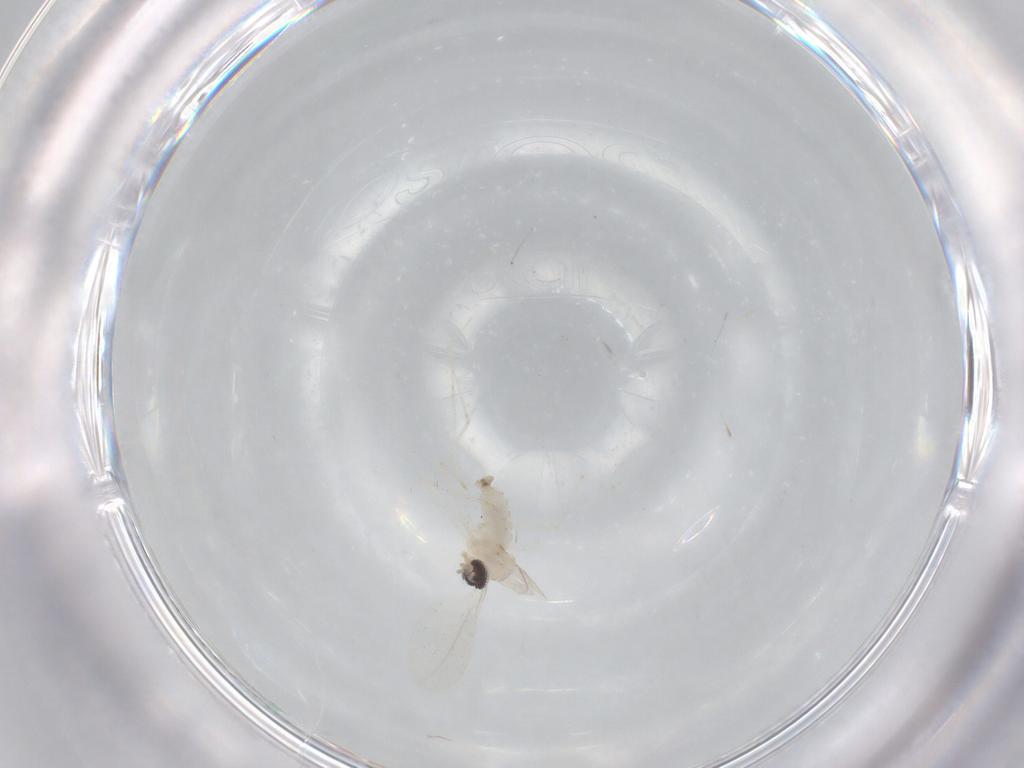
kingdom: Animalia
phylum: Arthropoda
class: Insecta
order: Diptera
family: Cecidomyiidae
